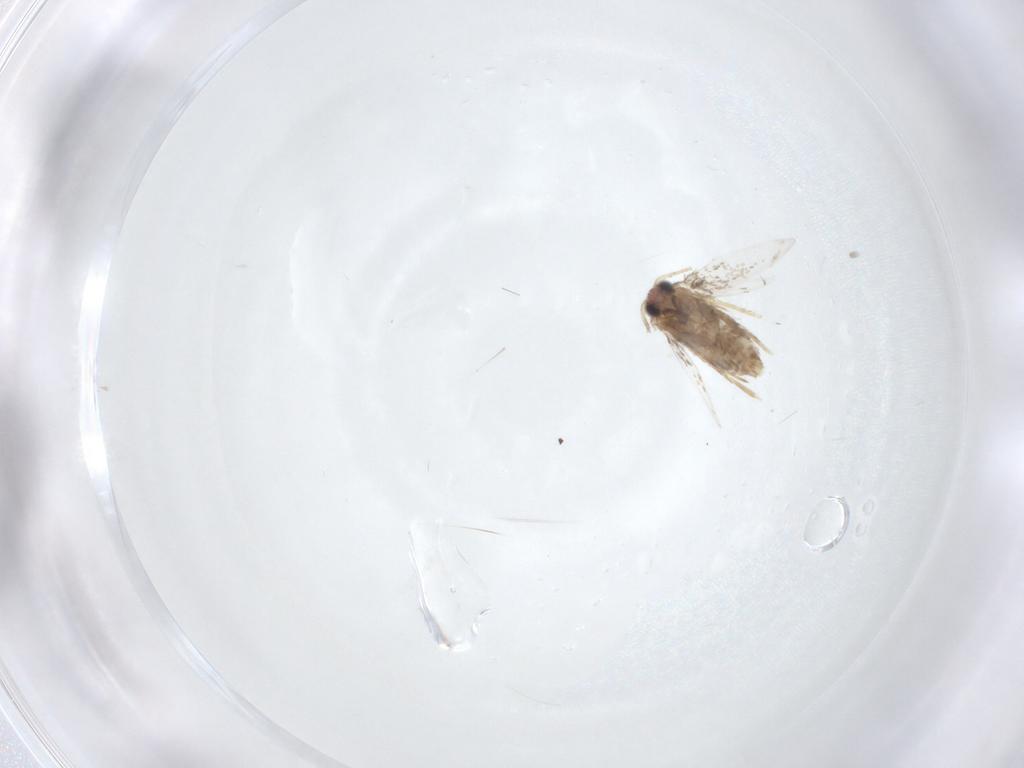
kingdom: Animalia
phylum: Arthropoda
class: Insecta
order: Lepidoptera
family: Nepticulidae
